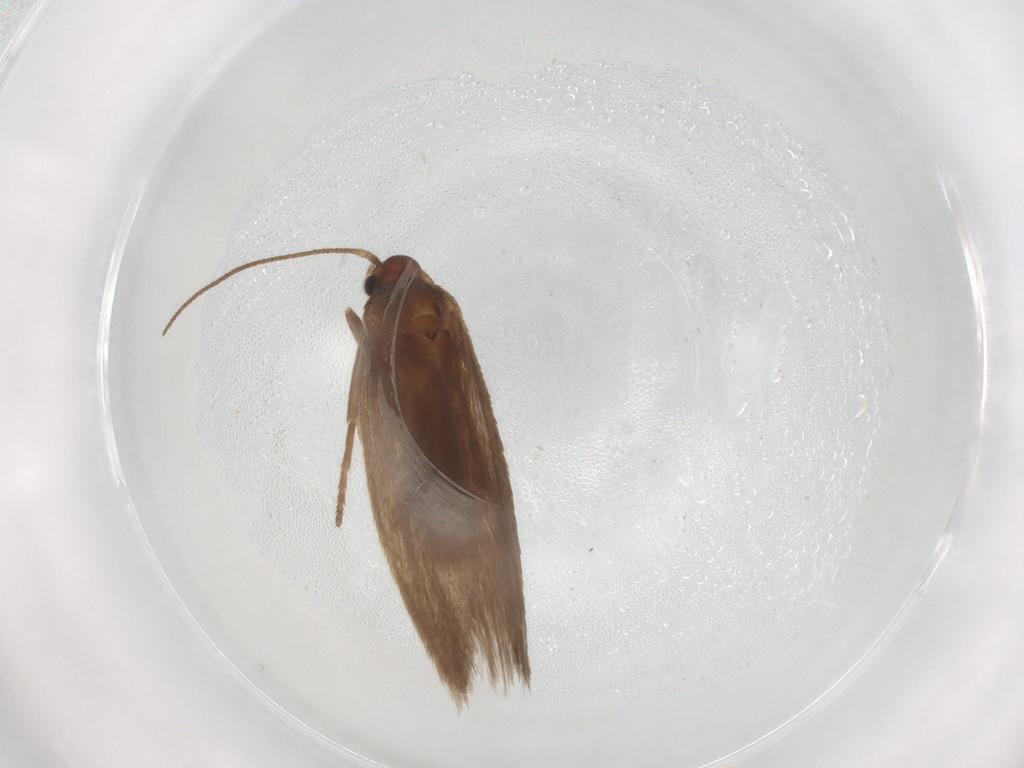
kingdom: Animalia
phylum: Arthropoda
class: Insecta
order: Lepidoptera
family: Limacodidae
